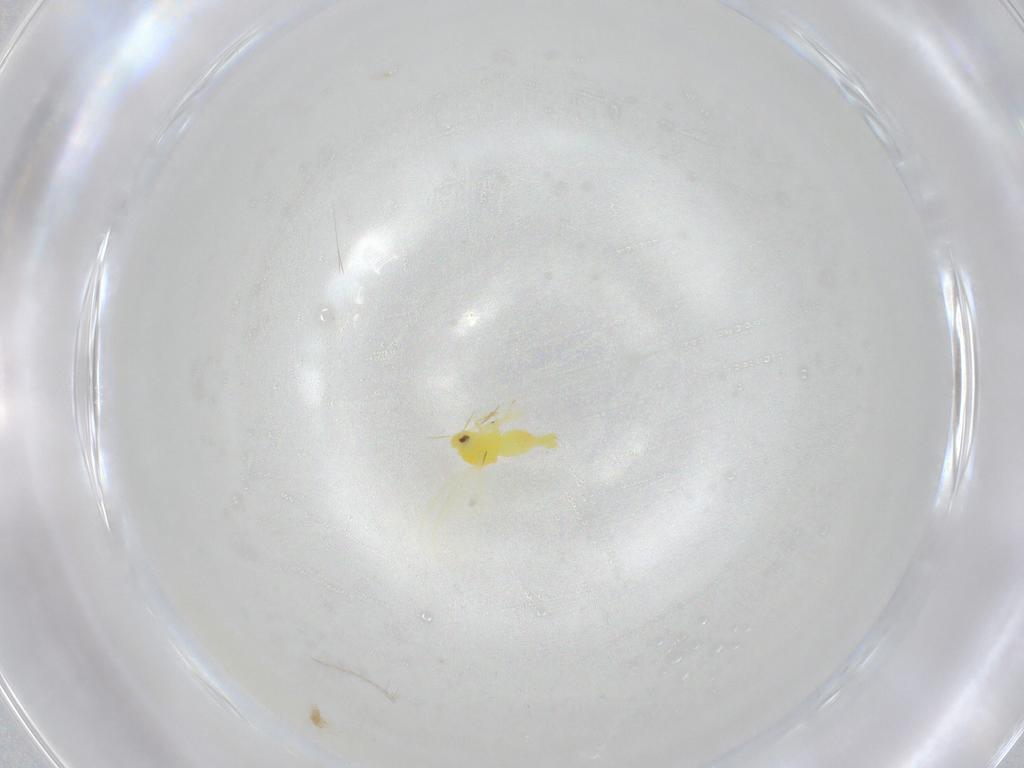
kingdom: Animalia
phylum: Arthropoda
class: Insecta
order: Hemiptera
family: Aleyrodidae
